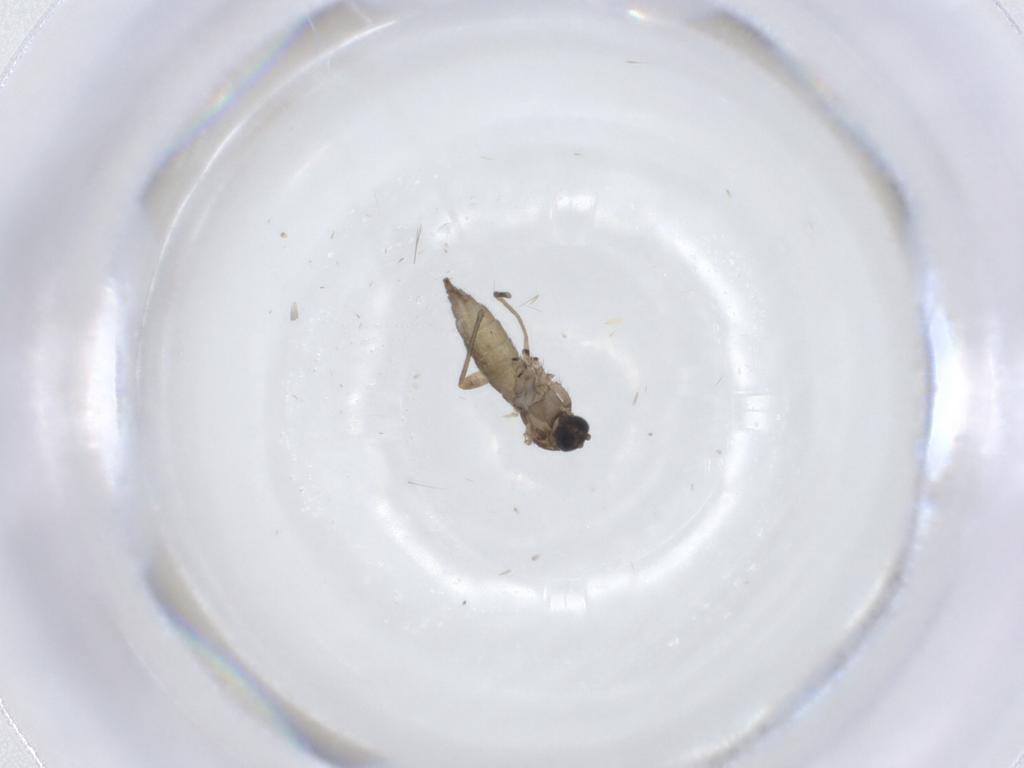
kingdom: Animalia
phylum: Arthropoda
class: Insecta
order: Diptera
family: Sciaridae
